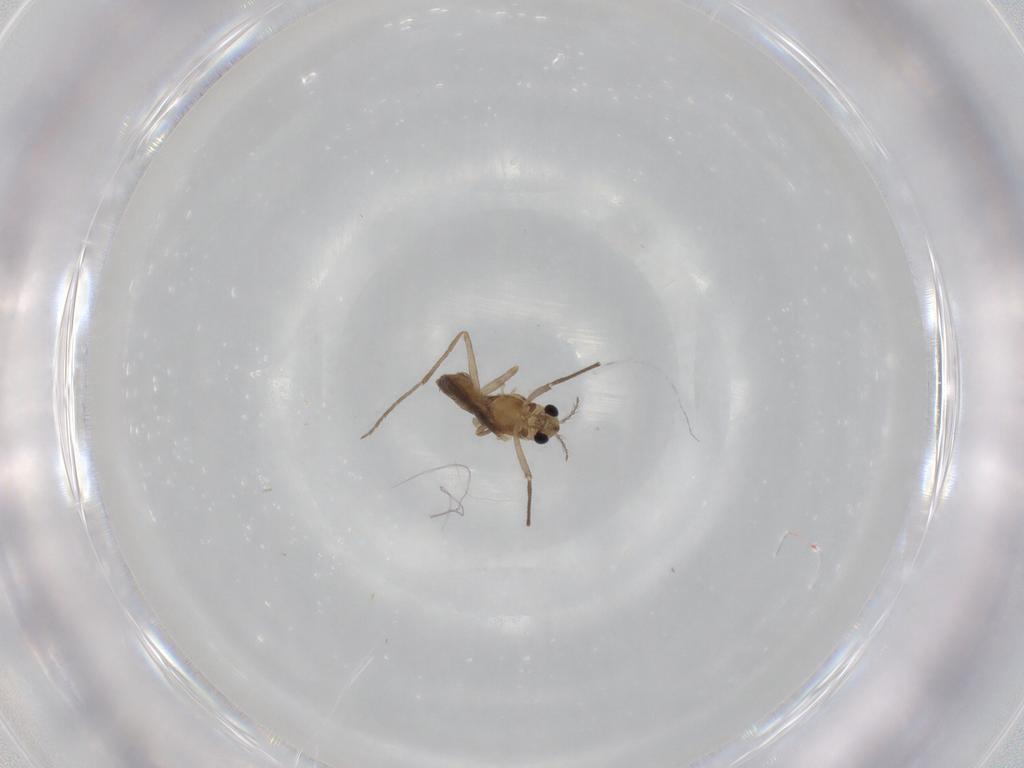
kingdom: Animalia
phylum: Arthropoda
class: Insecta
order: Diptera
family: Chironomidae
